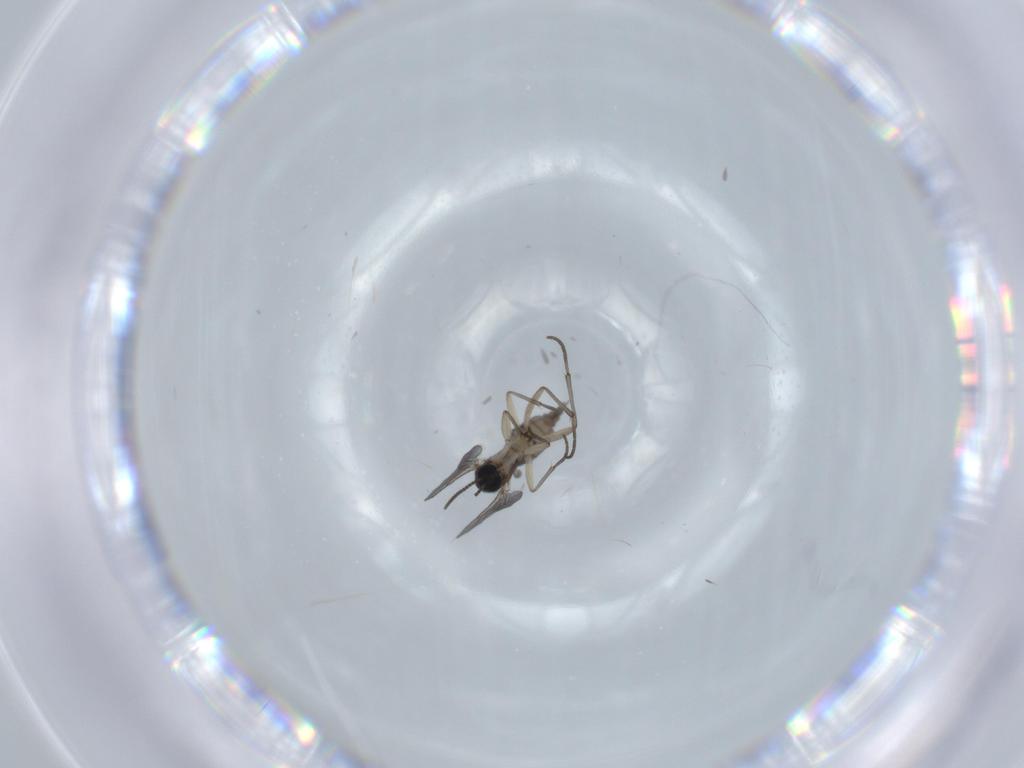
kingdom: Animalia
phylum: Arthropoda
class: Insecta
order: Diptera
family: Sciaridae
